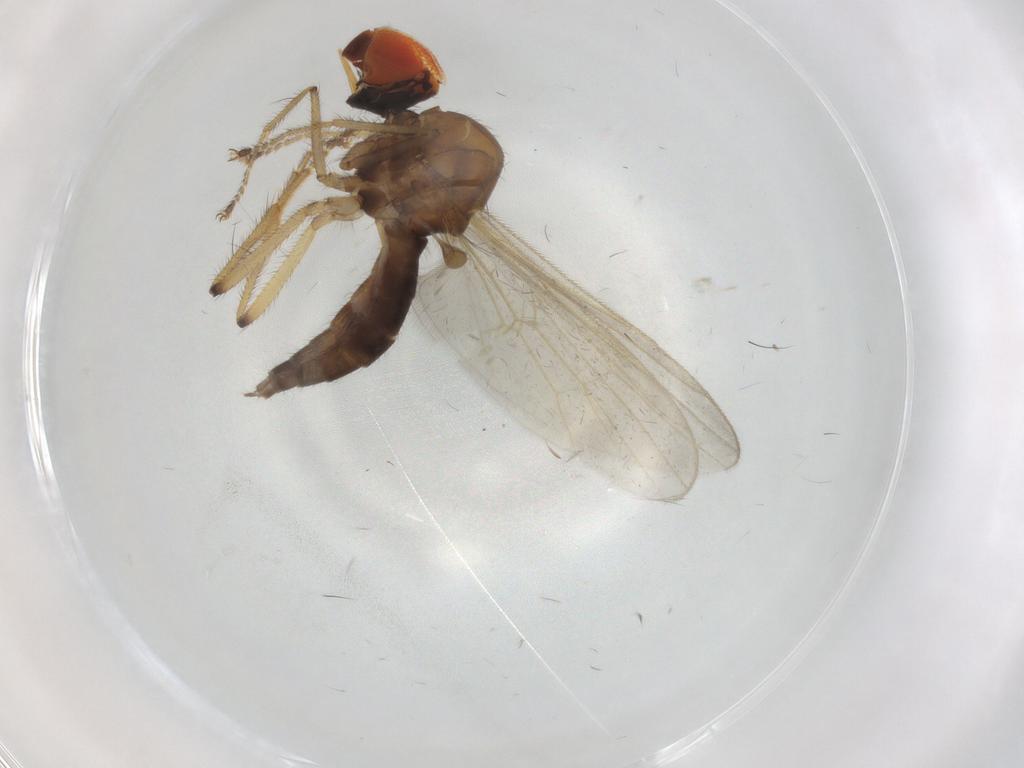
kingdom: Animalia
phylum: Arthropoda
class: Insecta
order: Diptera
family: Hybotidae
